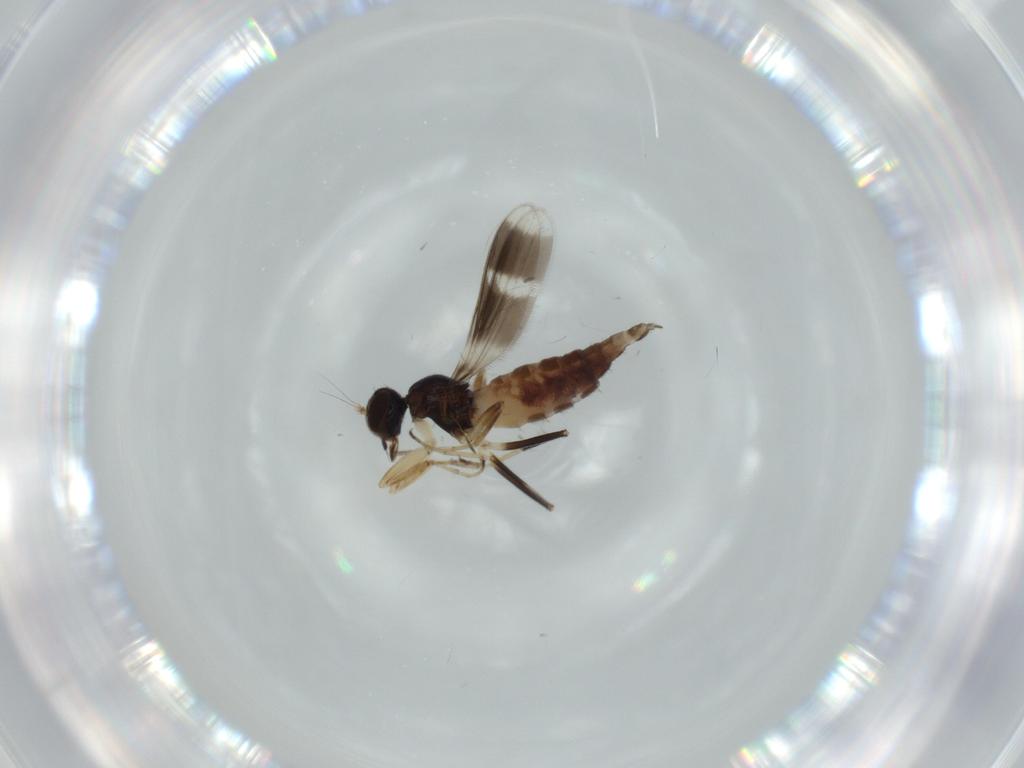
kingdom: Animalia
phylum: Arthropoda
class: Insecta
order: Diptera
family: Hybotidae
